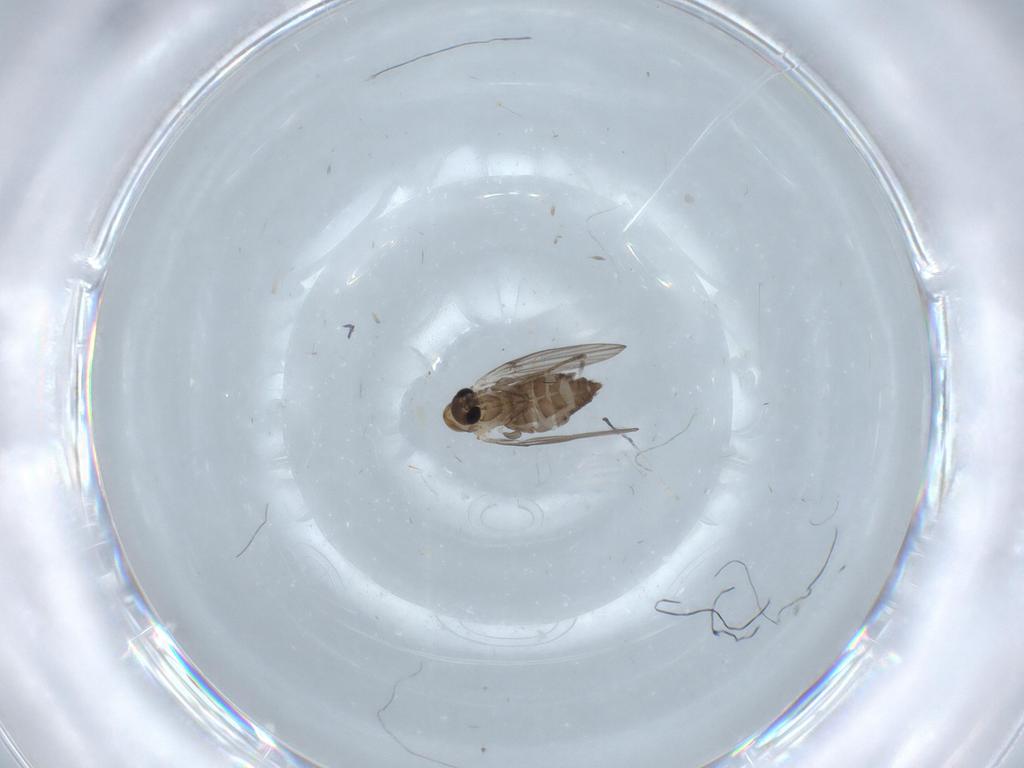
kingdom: Animalia
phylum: Arthropoda
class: Insecta
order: Diptera
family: Psychodidae
